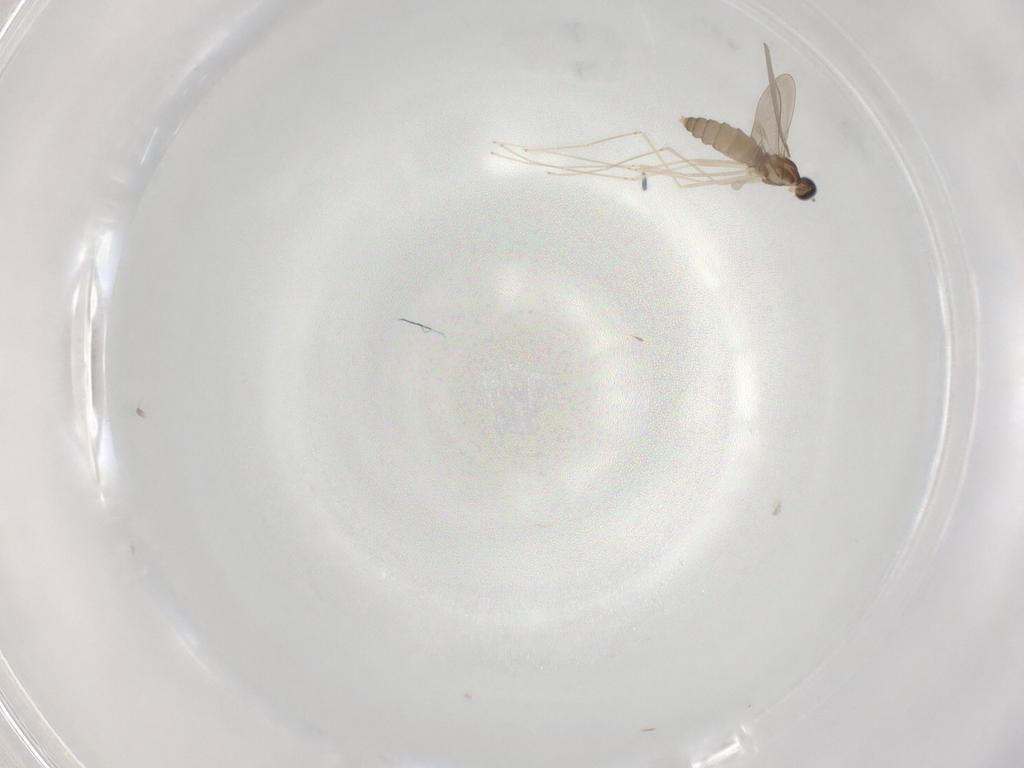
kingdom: Animalia
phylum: Arthropoda
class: Insecta
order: Diptera
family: Cecidomyiidae
